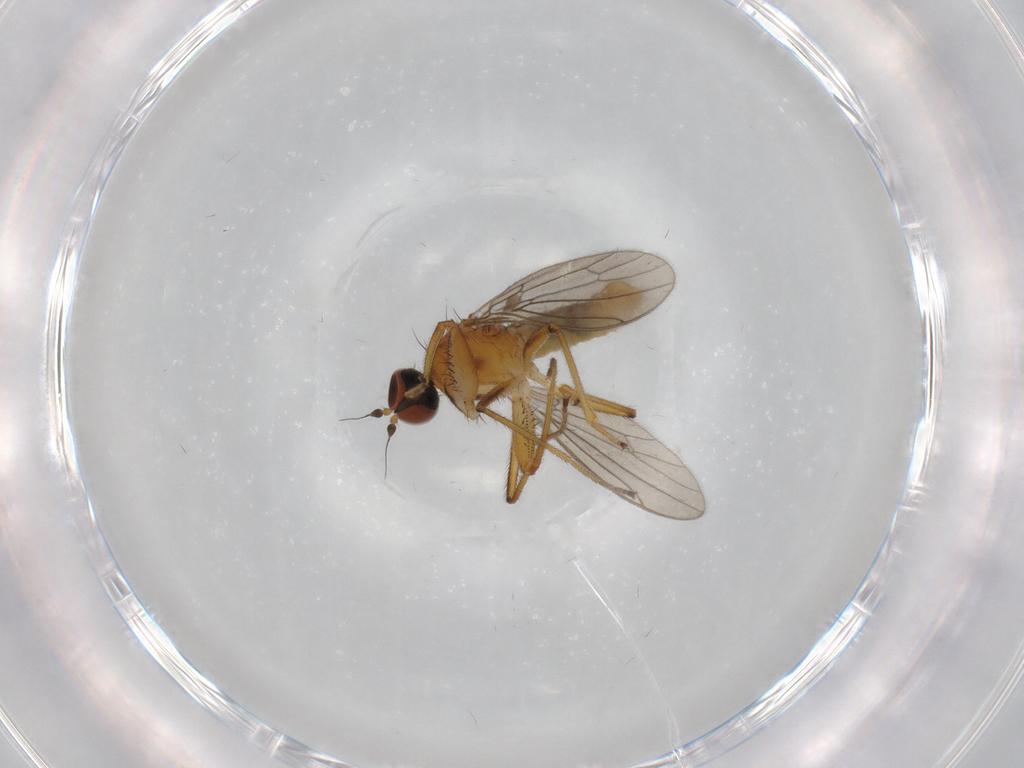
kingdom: Animalia
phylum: Arthropoda
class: Insecta
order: Diptera
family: Empididae
